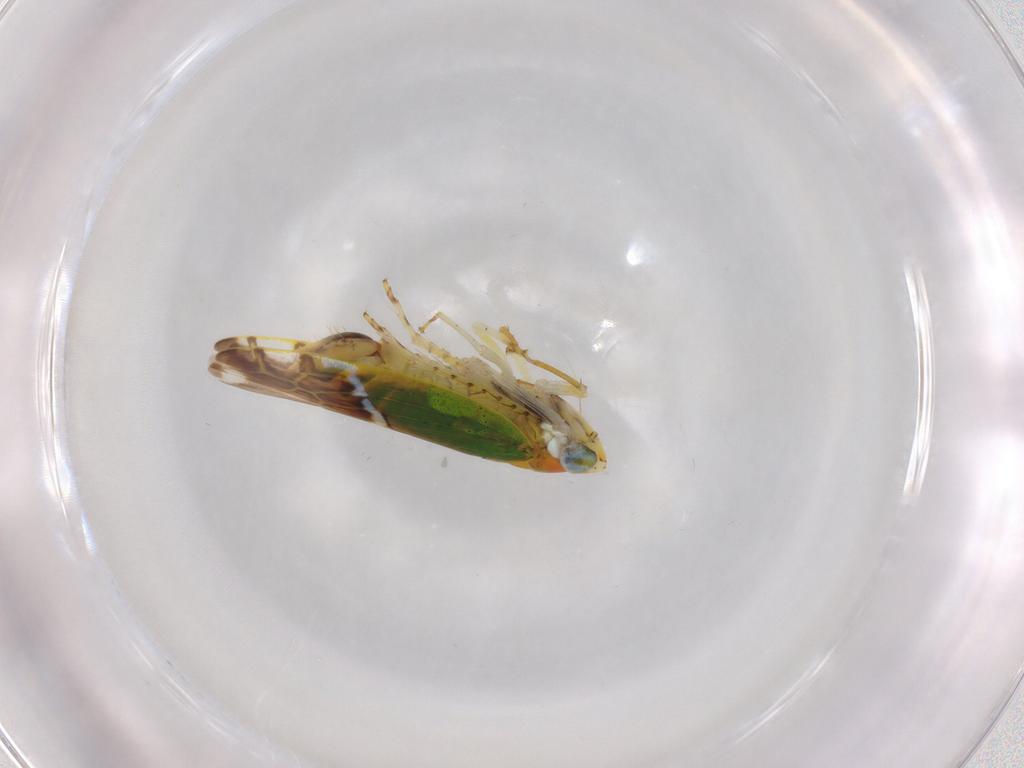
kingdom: Animalia
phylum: Arthropoda
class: Insecta
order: Hemiptera
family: Cicadellidae
